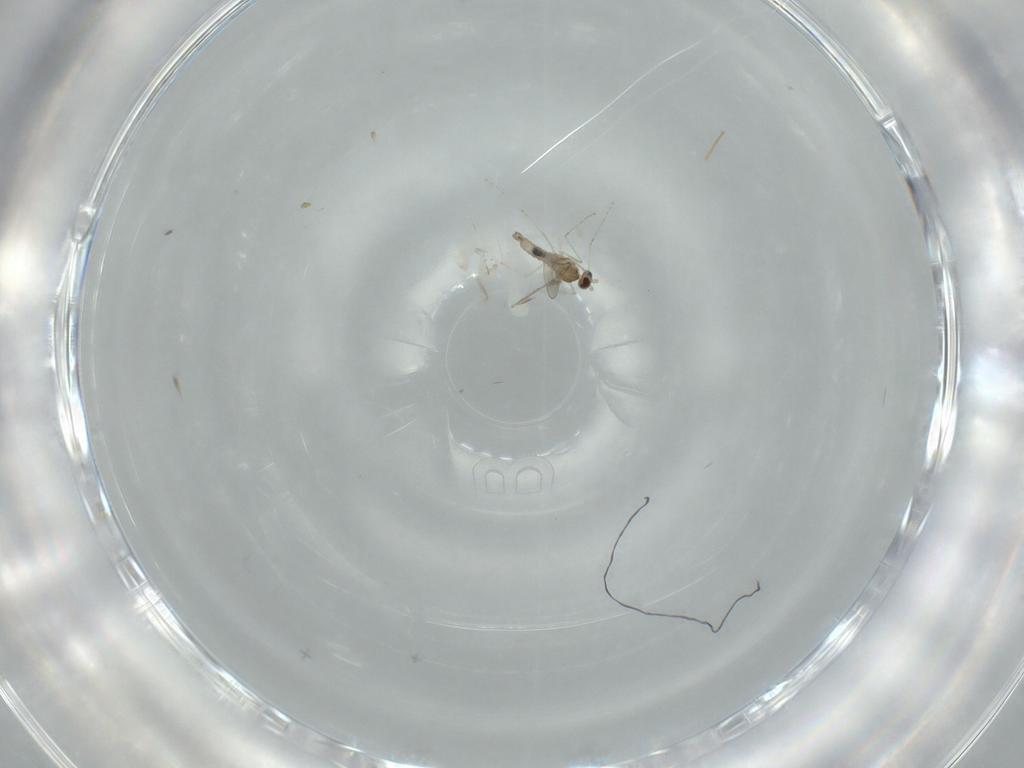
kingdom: Animalia
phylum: Arthropoda
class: Insecta
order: Diptera
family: Cecidomyiidae
